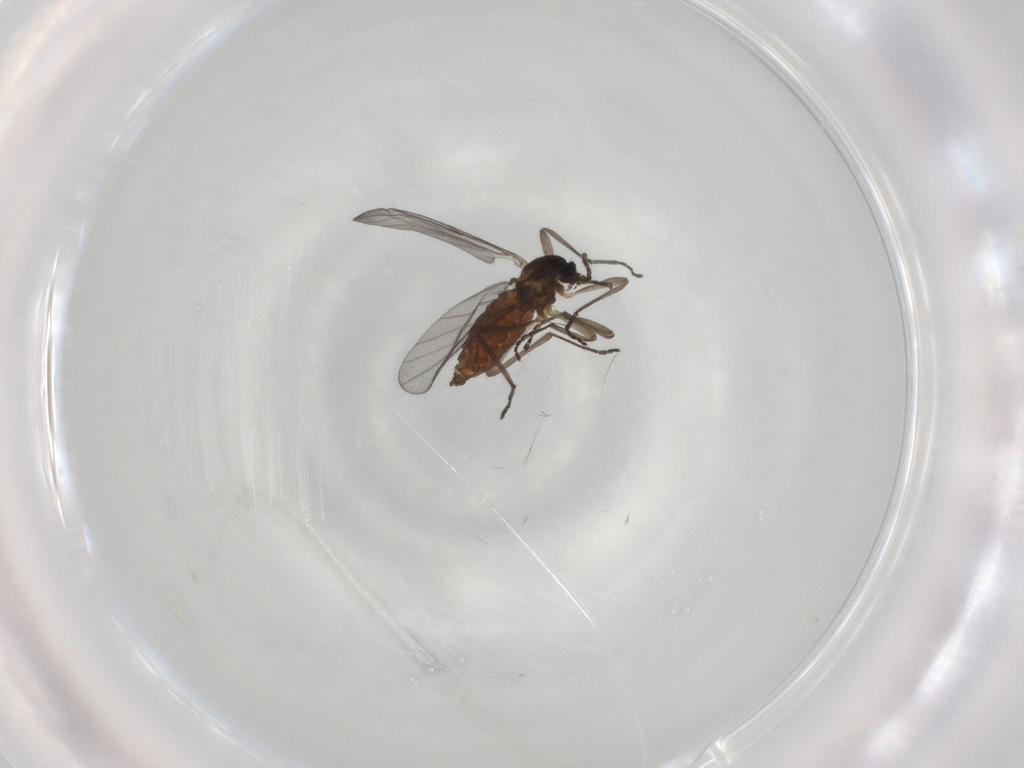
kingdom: Animalia
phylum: Arthropoda
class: Insecta
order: Diptera
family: Cecidomyiidae
